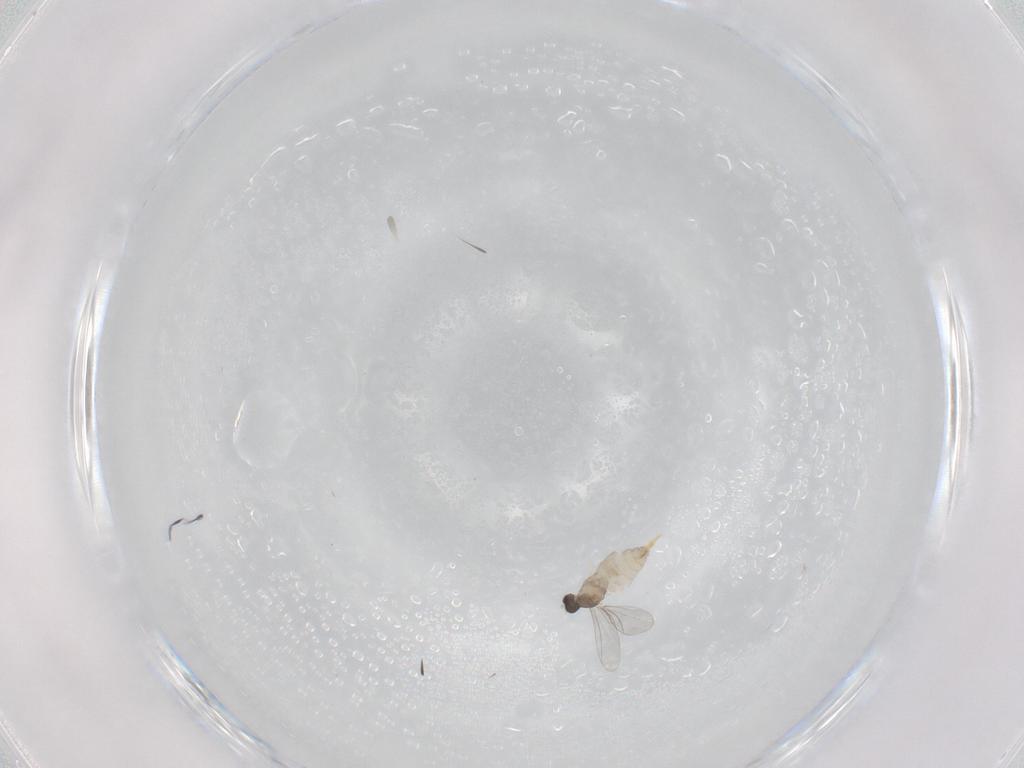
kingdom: Animalia
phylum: Arthropoda
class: Insecta
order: Diptera
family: Cecidomyiidae
